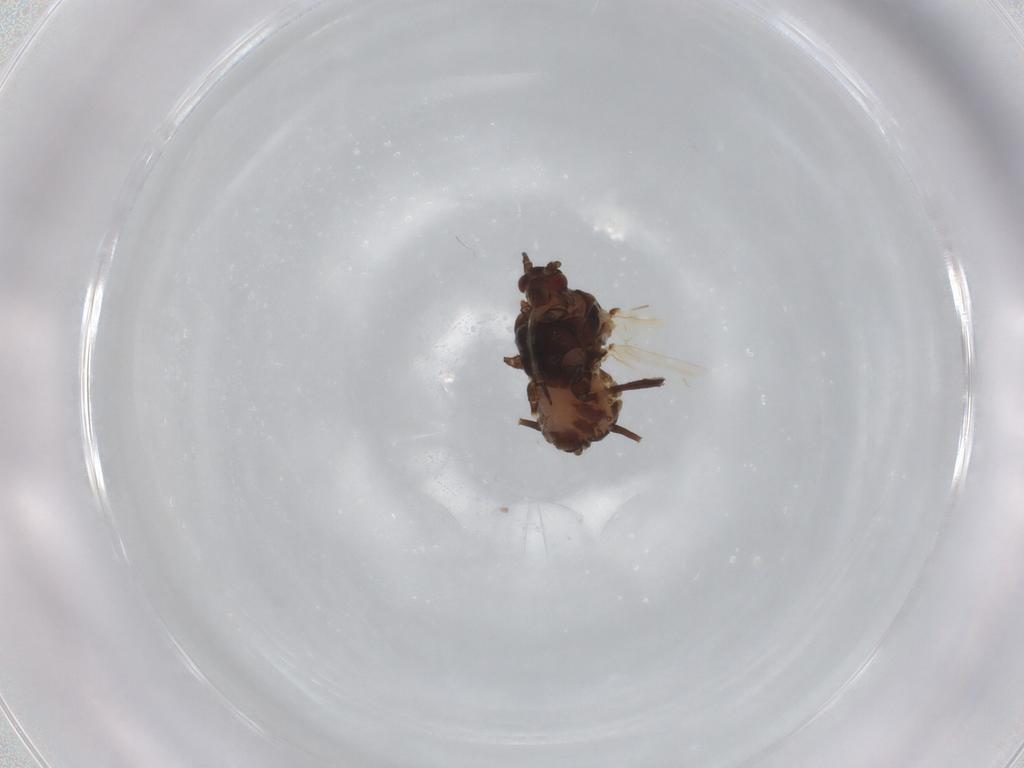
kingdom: Animalia
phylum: Arthropoda
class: Insecta
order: Hemiptera
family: Aphididae
